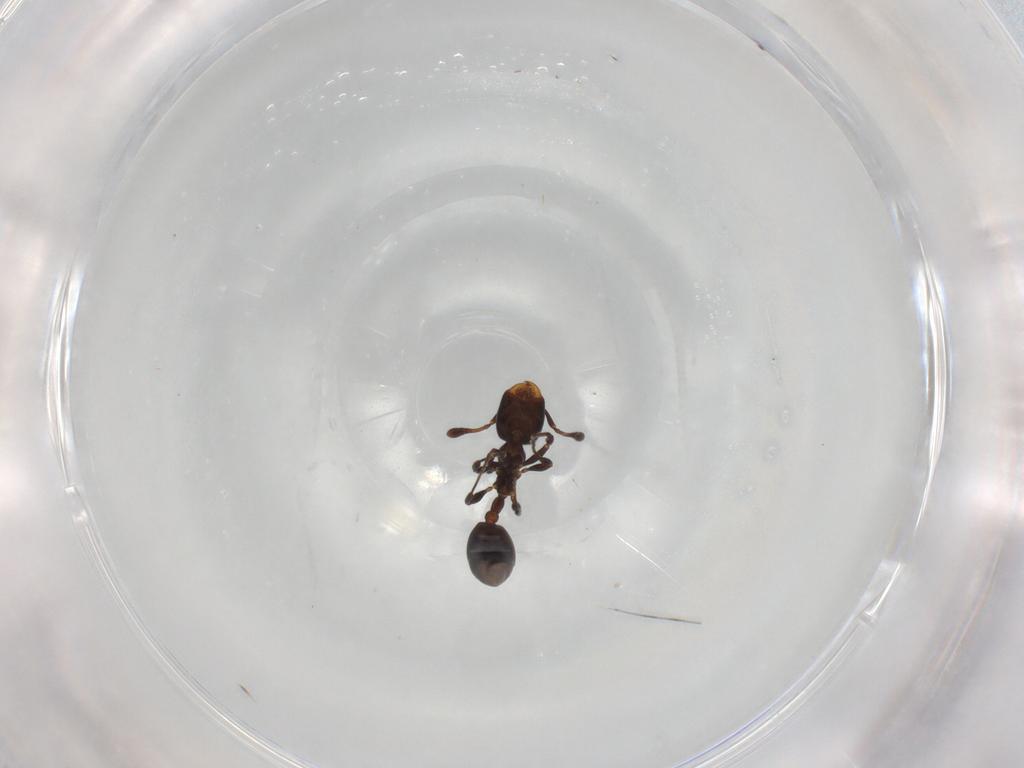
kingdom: Animalia
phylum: Arthropoda
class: Insecta
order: Hymenoptera
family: Formicidae
